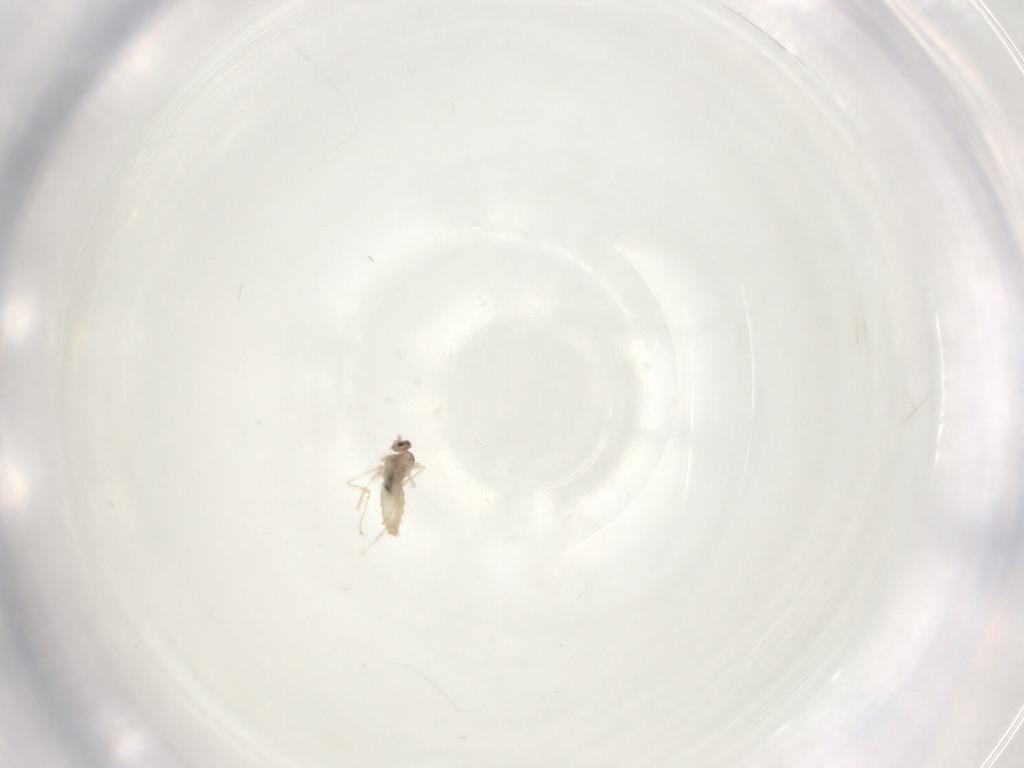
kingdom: Animalia
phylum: Arthropoda
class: Insecta
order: Diptera
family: Cecidomyiidae
